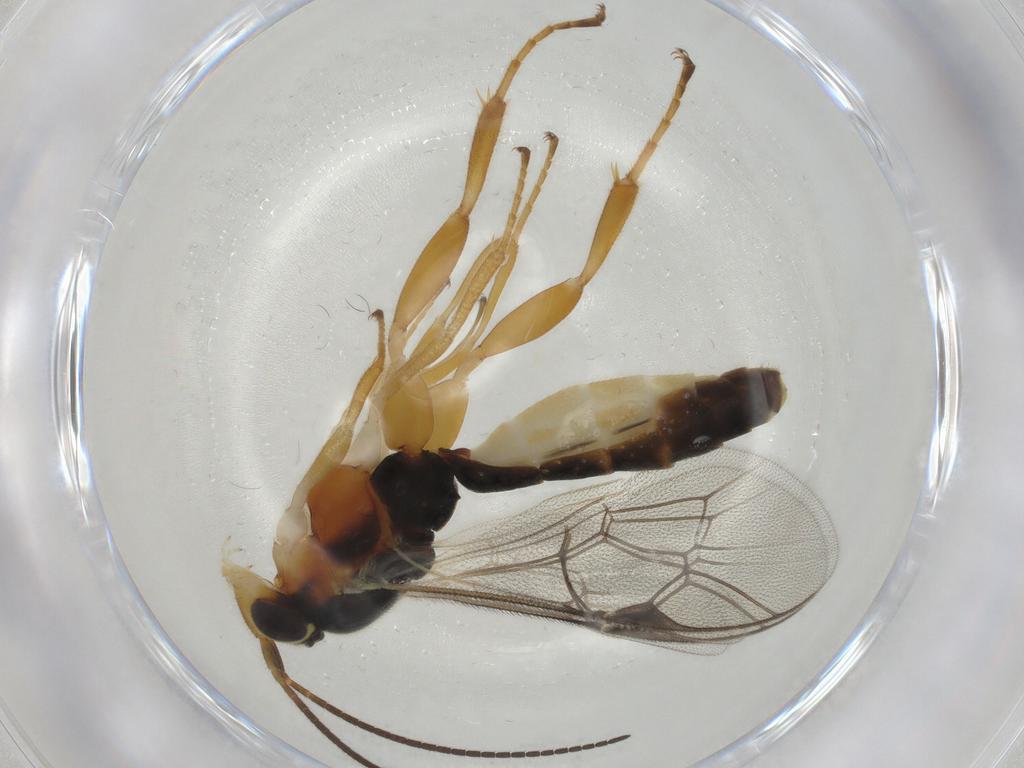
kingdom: Animalia
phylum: Arthropoda
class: Insecta
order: Hymenoptera
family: Ichneumonidae
